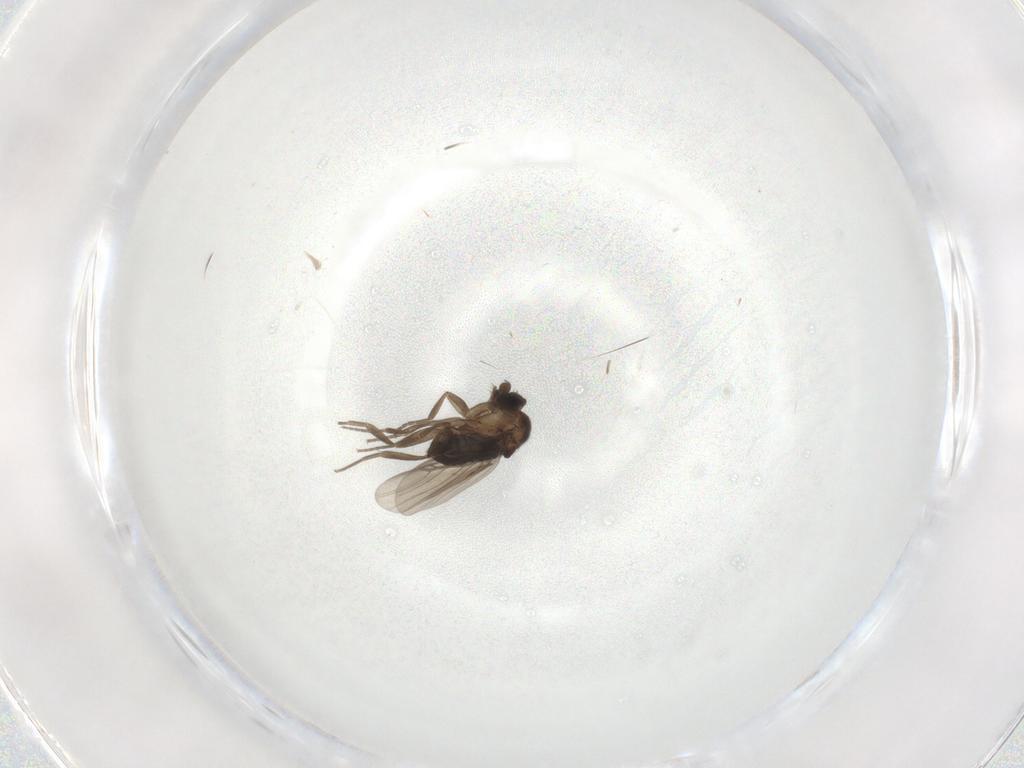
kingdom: Animalia
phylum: Arthropoda
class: Insecta
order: Diptera
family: Phoridae
